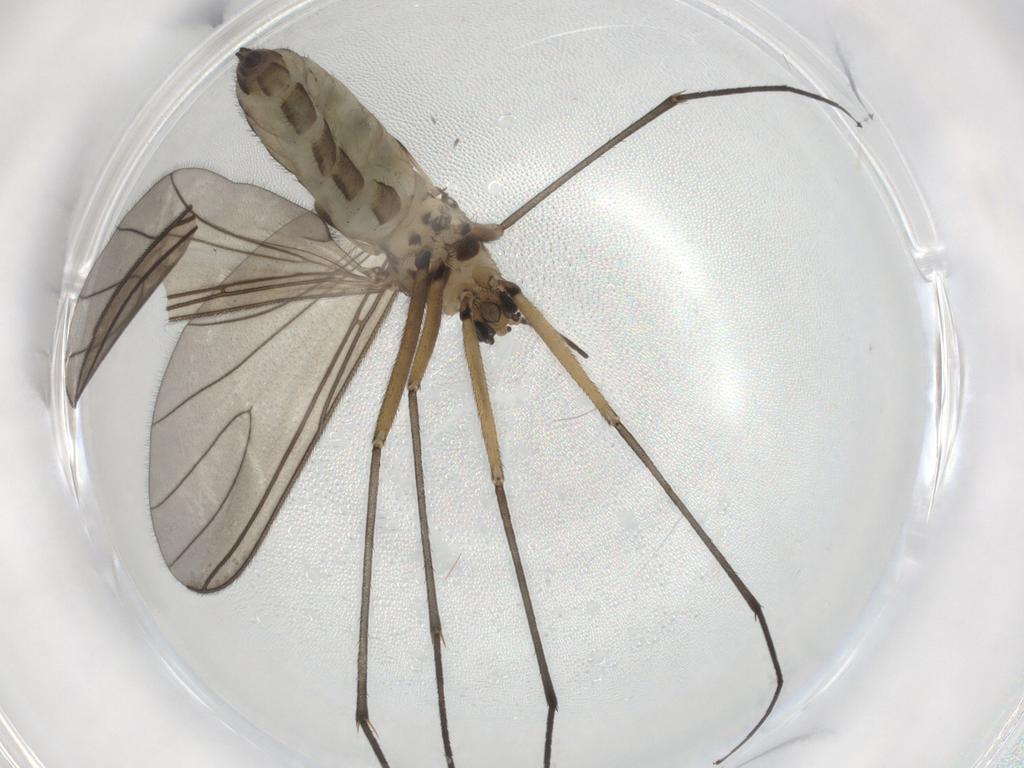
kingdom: Animalia
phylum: Arthropoda
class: Insecta
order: Diptera
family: Sciaridae
